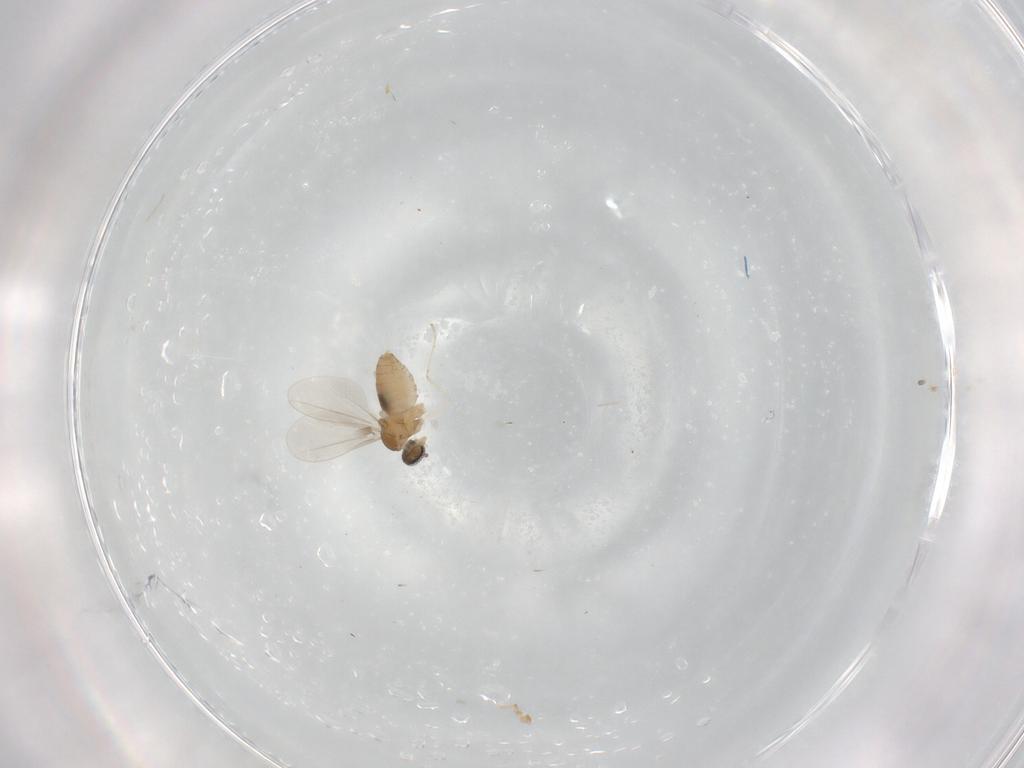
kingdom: Animalia
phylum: Arthropoda
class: Insecta
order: Diptera
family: Cecidomyiidae
